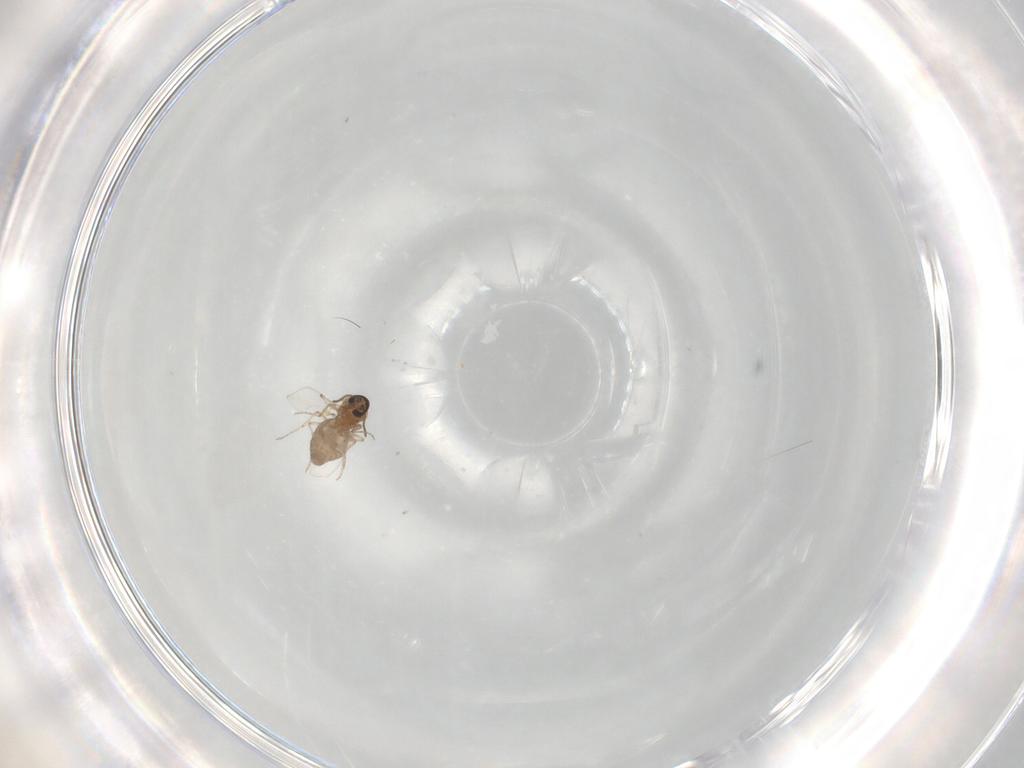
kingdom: Animalia
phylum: Arthropoda
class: Insecta
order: Diptera
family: Ceratopogonidae
